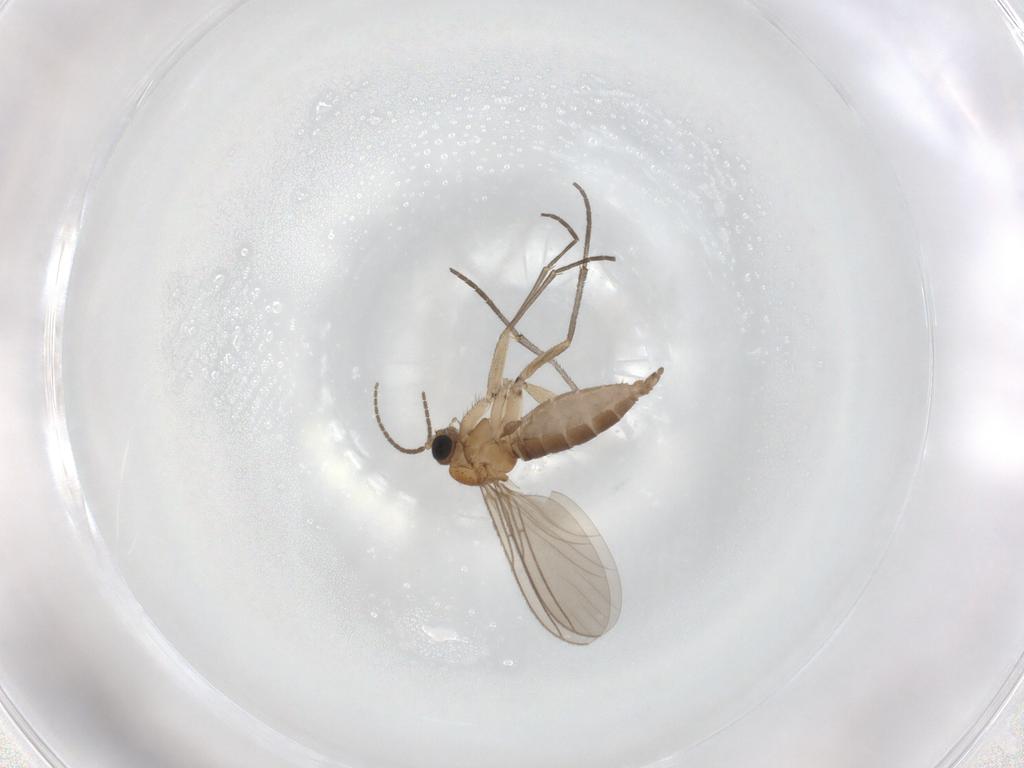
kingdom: Animalia
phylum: Arthropoda
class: Insecta
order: Diptera
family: Sciaridae
